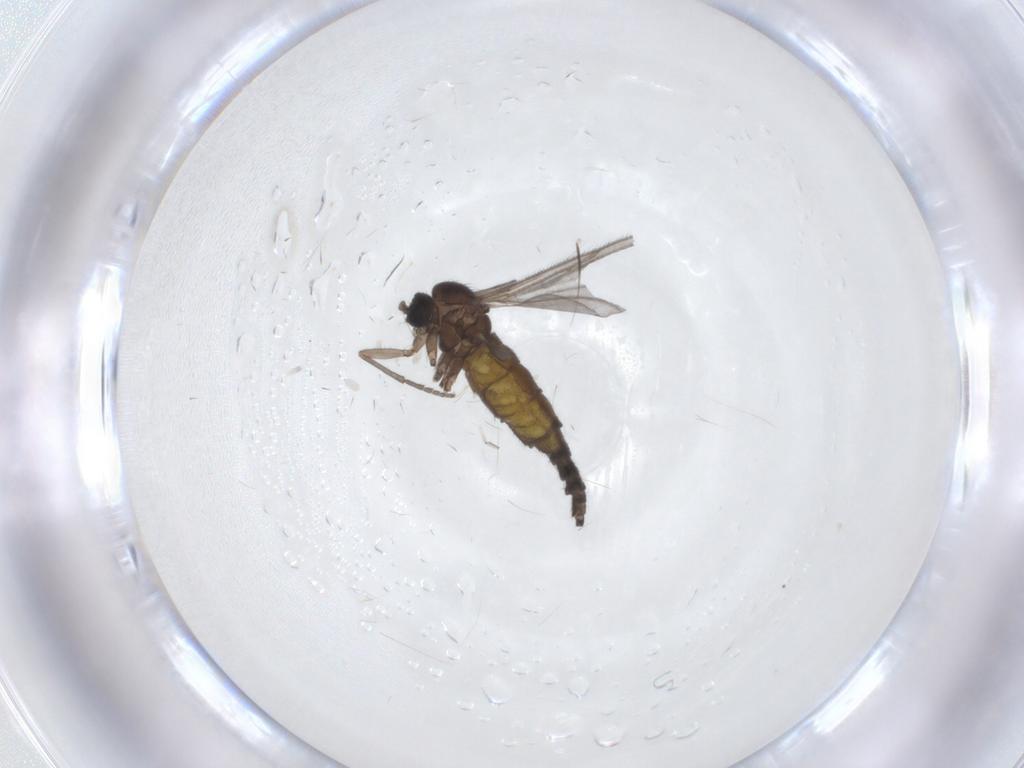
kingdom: Animalia
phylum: Arthropoda
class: Insecta
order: Diptera
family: Sciaridae
